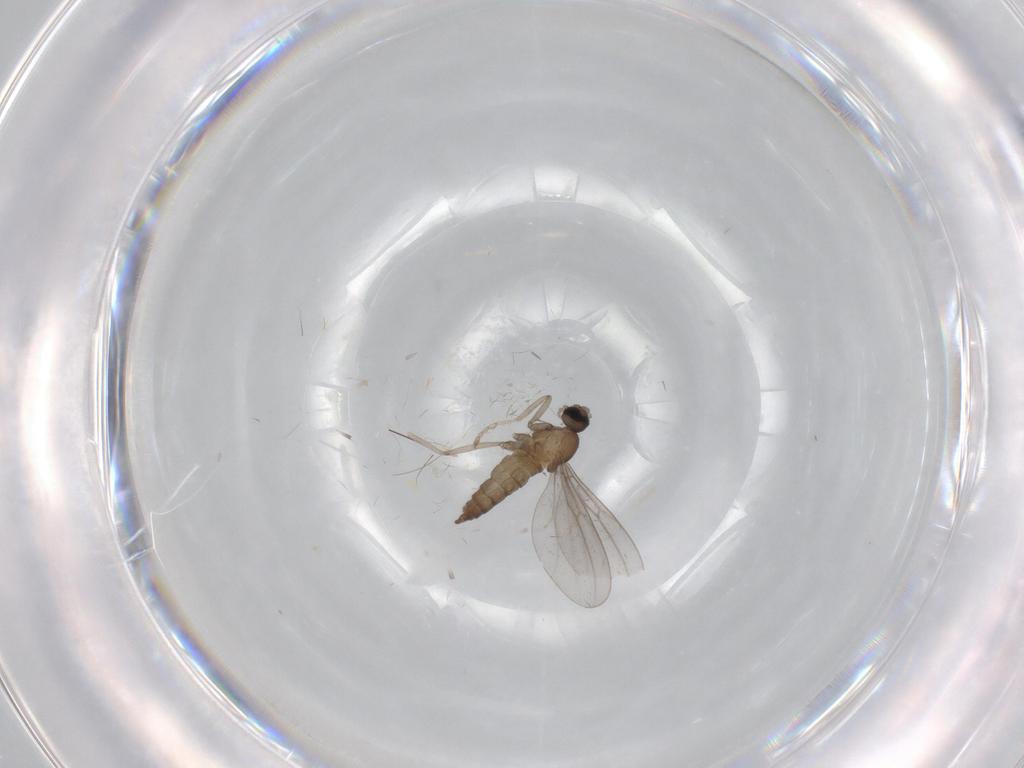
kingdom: Animalia
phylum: Arthropoda
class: Insecta
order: Diptera
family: Cecidomyiidae
